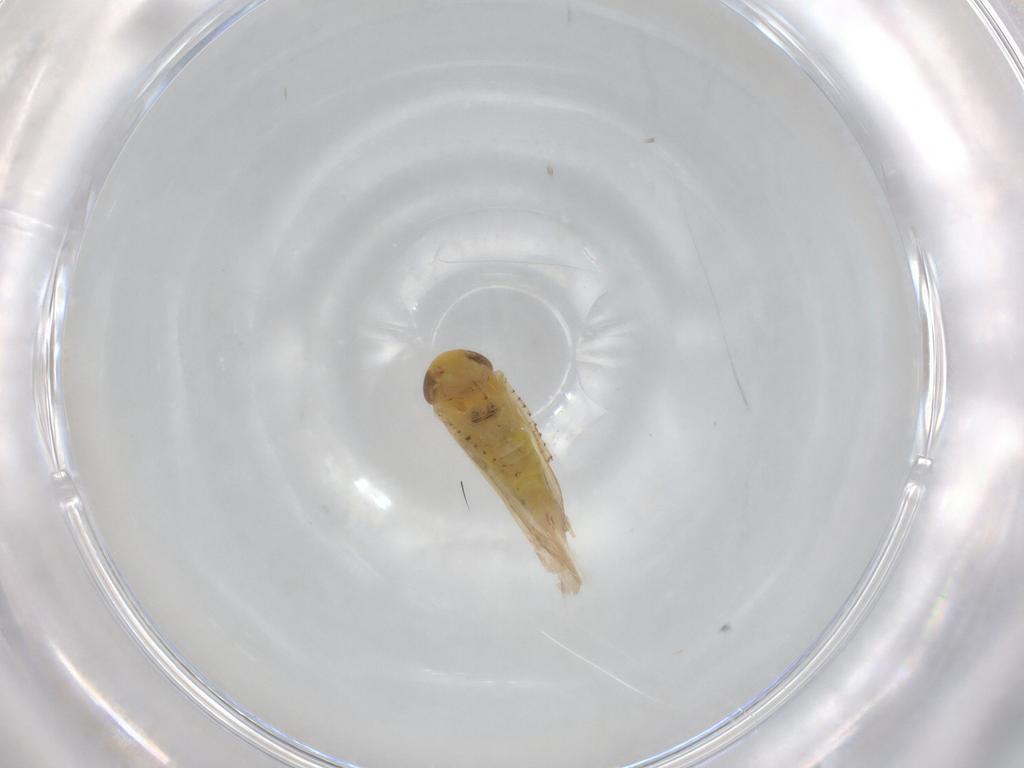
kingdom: Animalia
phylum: Arthropoda
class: Insecta
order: Hemiptera
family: Cicadellidae
